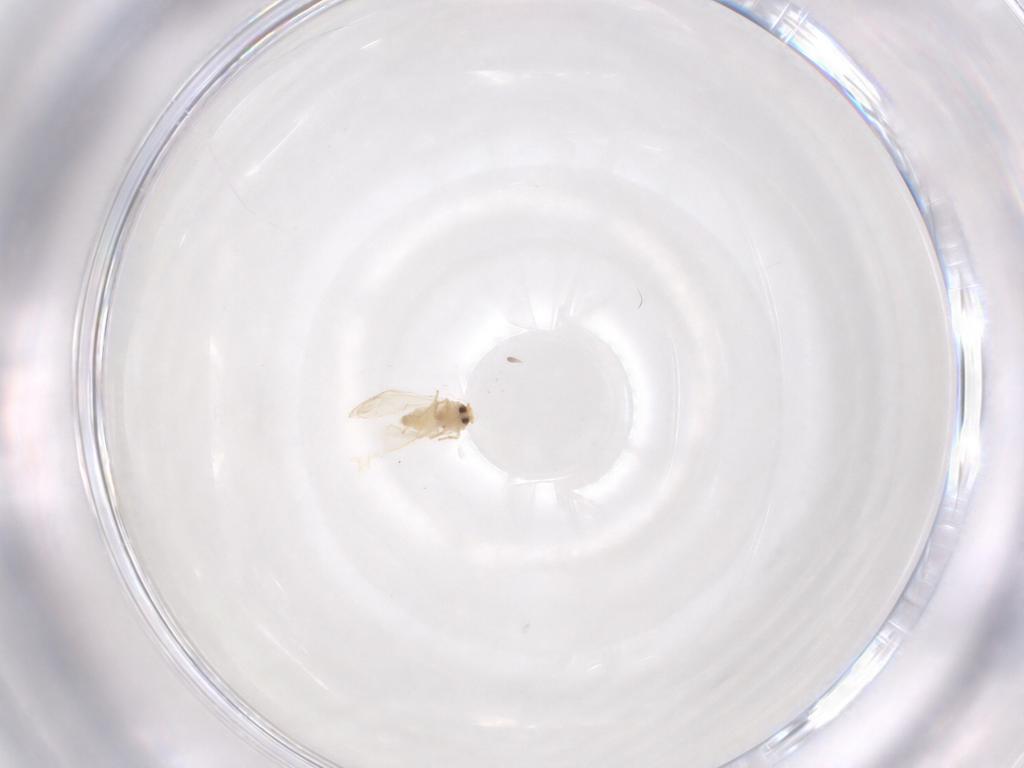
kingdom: Animalia
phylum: Arthropoda
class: Insecta
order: Hemiptera
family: Aleyrodidae
